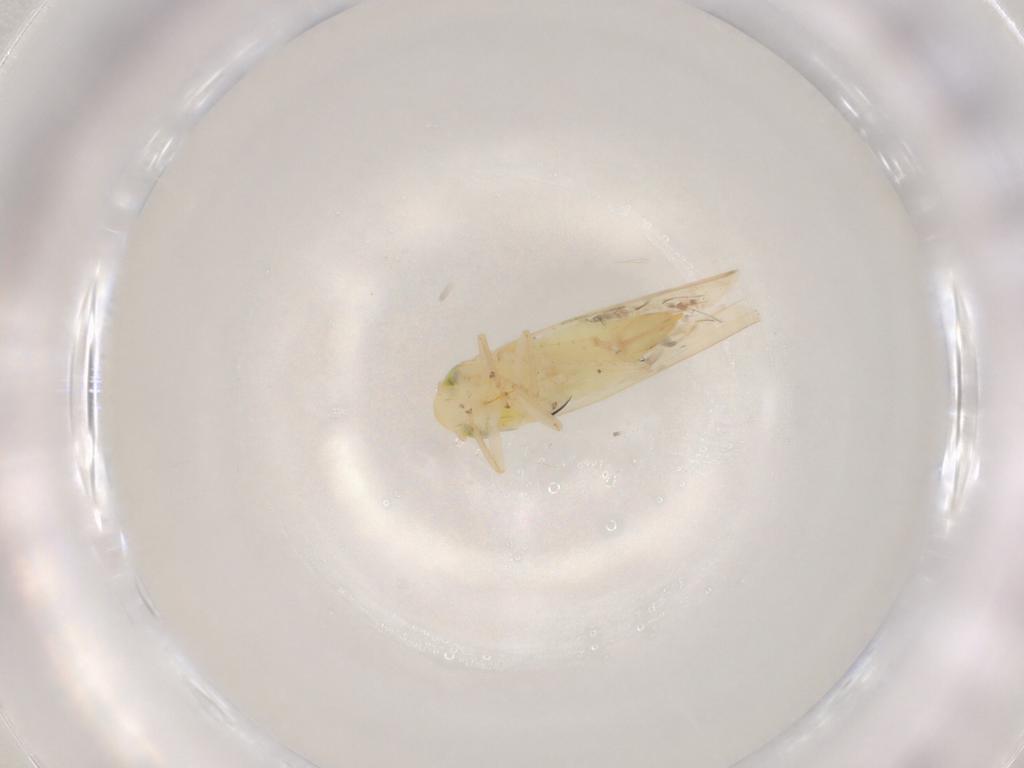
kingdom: Animalia
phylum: Arthropoda
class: Insecta
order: Hemiptera
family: Cicadellidae
